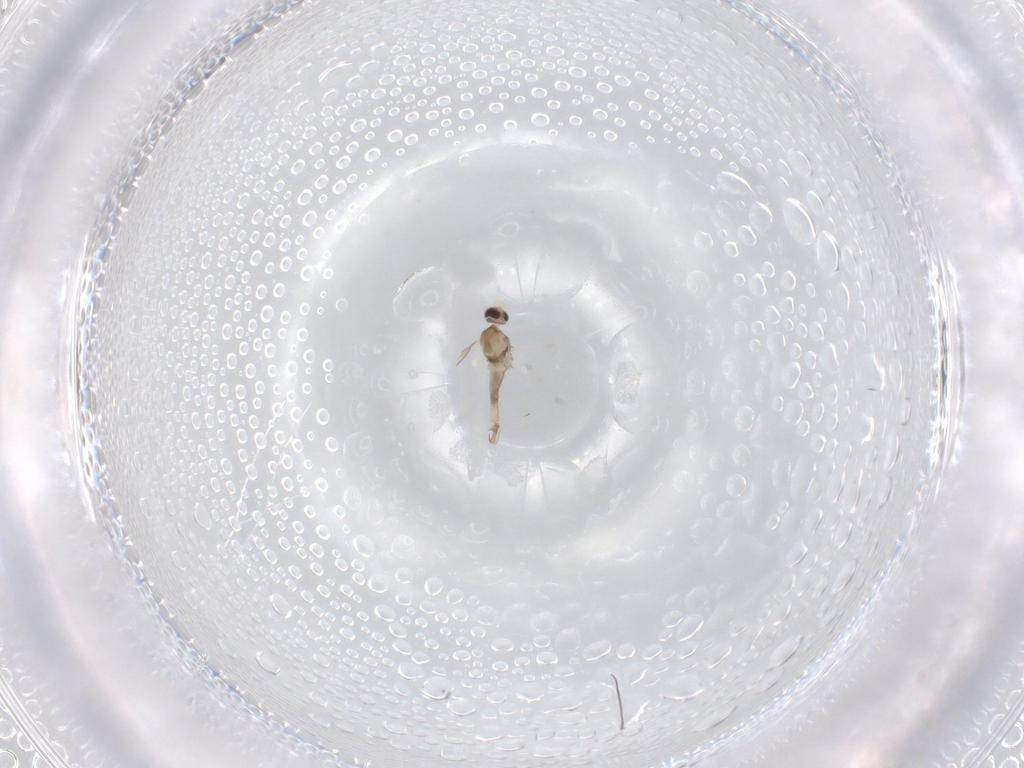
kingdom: Animalia
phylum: Arthropoda
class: Insecta
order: Diptera
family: Cecidomyiidae
